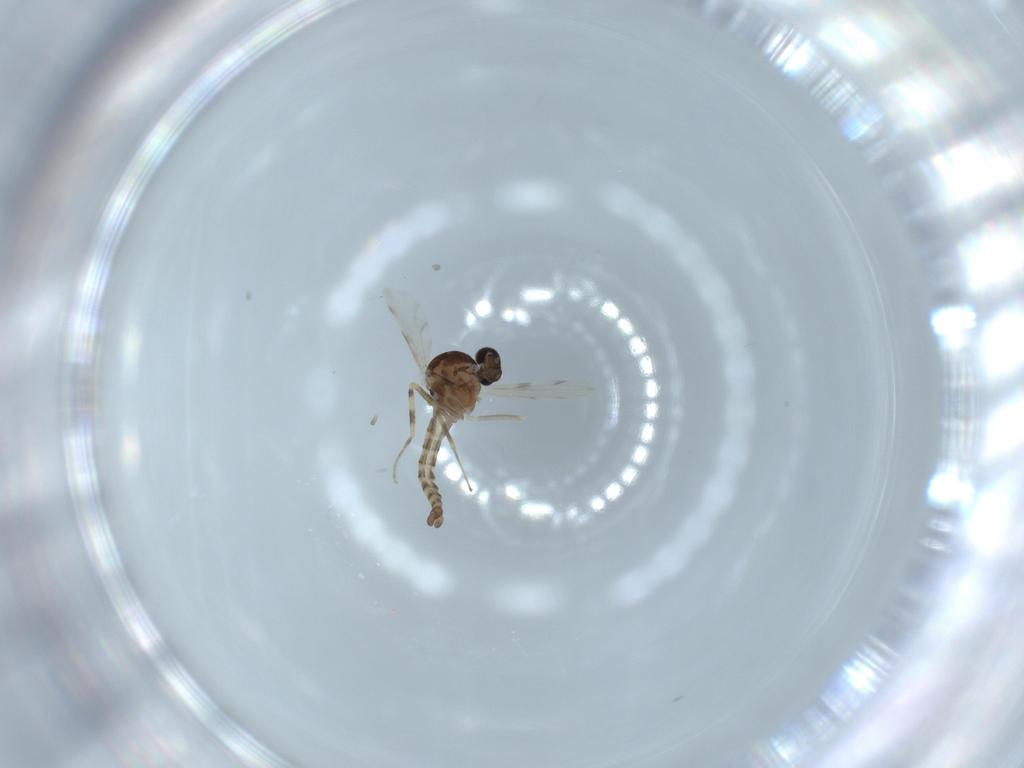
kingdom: Animalia
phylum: Arthropoda
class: Insecta
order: Diptera
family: Ceratopogonidae
